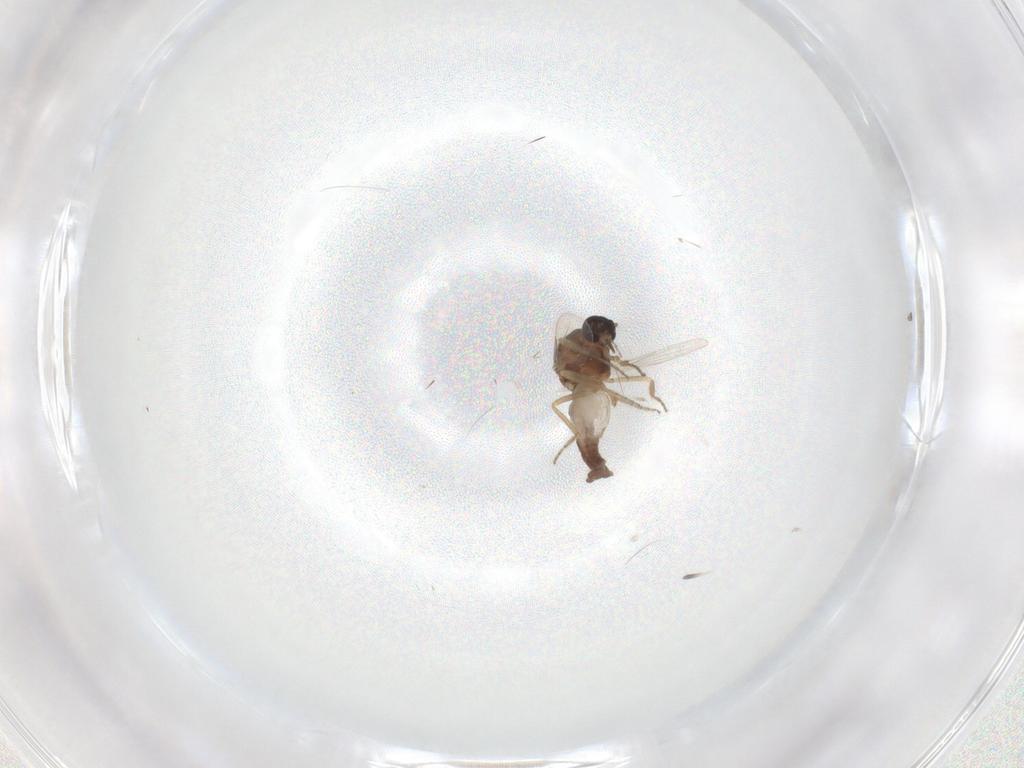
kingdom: Animalia
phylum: Arthropoda
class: Insecta
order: Diptera
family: Ceratopogonidae
